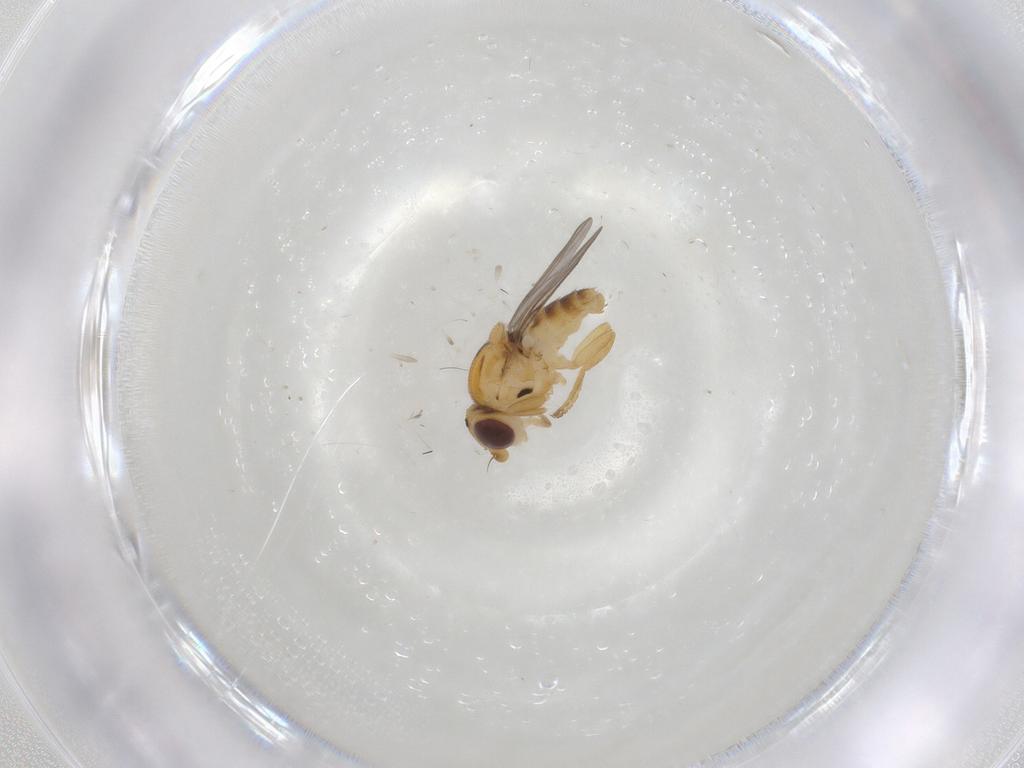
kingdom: Animalia
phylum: Arthropoda
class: Insecta
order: Diptera
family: Chloropidae
